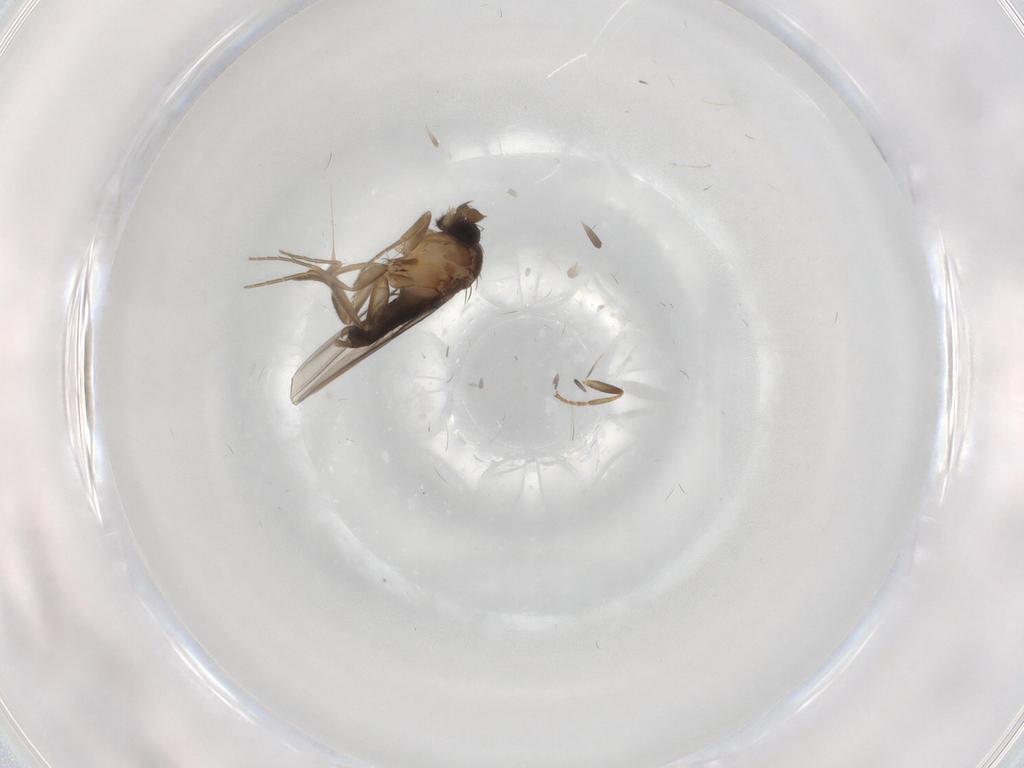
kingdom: Animalia
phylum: Arthropoda
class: Insecta
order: Diptera
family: Phoridae
